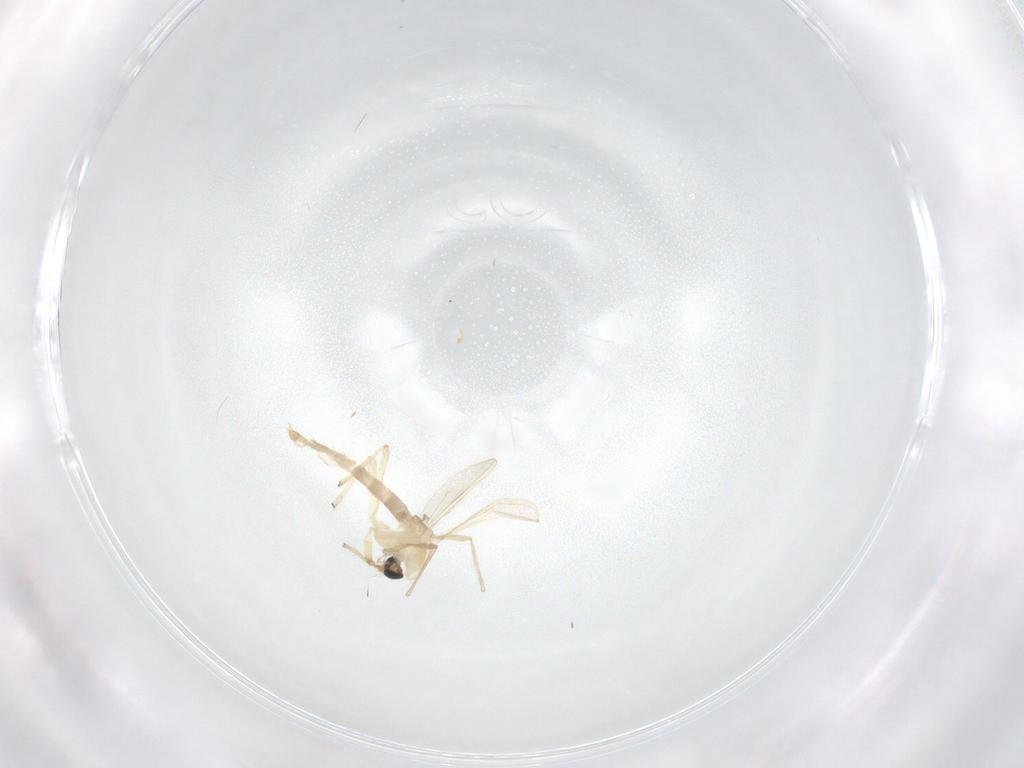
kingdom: Animalia
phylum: Arthropoda
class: Insecta
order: Diptera
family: Chironomidae
